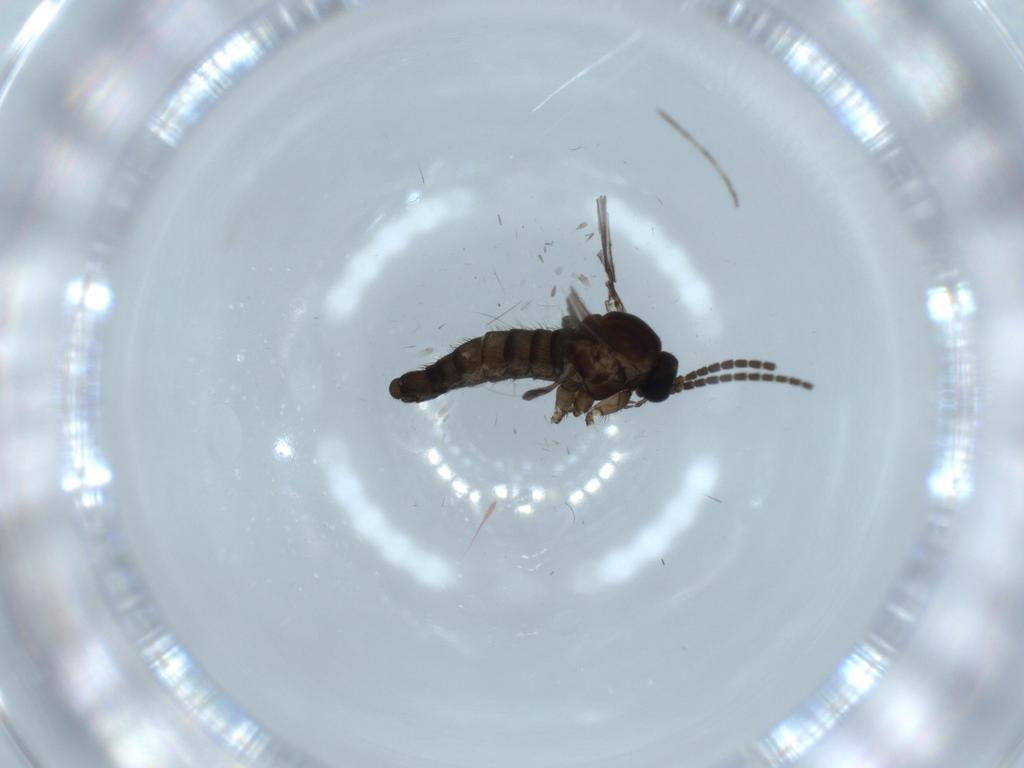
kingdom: Animalia
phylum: Arthropoda
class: Insecta
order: Diptera
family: Sciaridae
